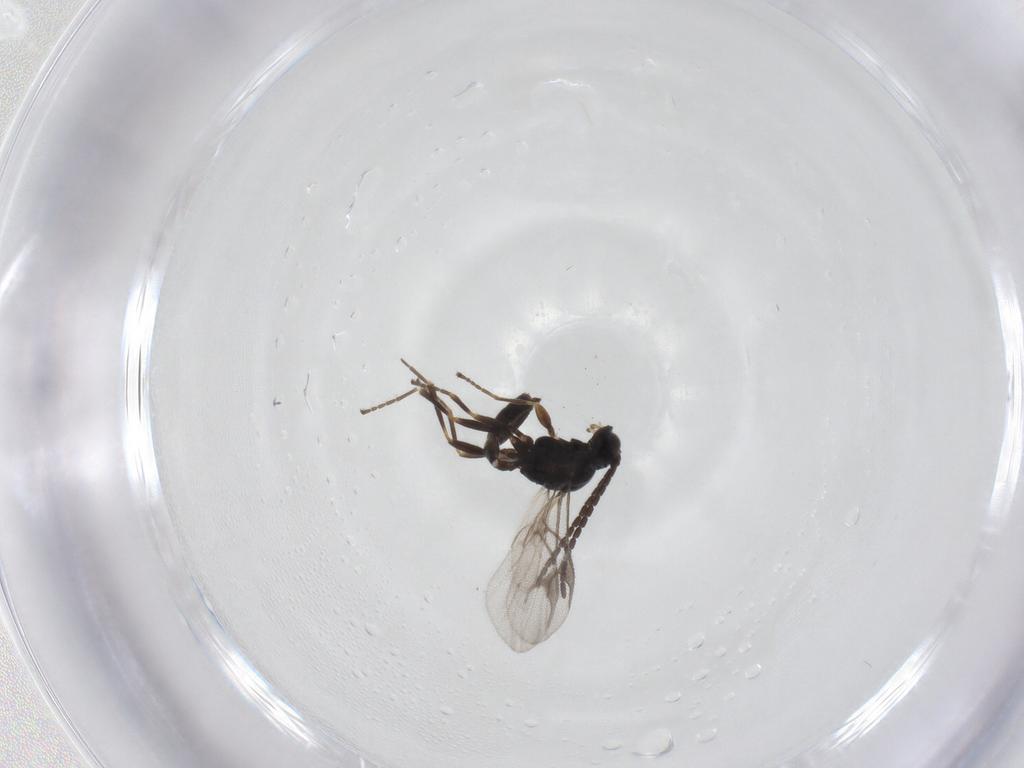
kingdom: Animalia
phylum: Arthropoda
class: Insecta
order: Hymenoptera
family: Braconidae
